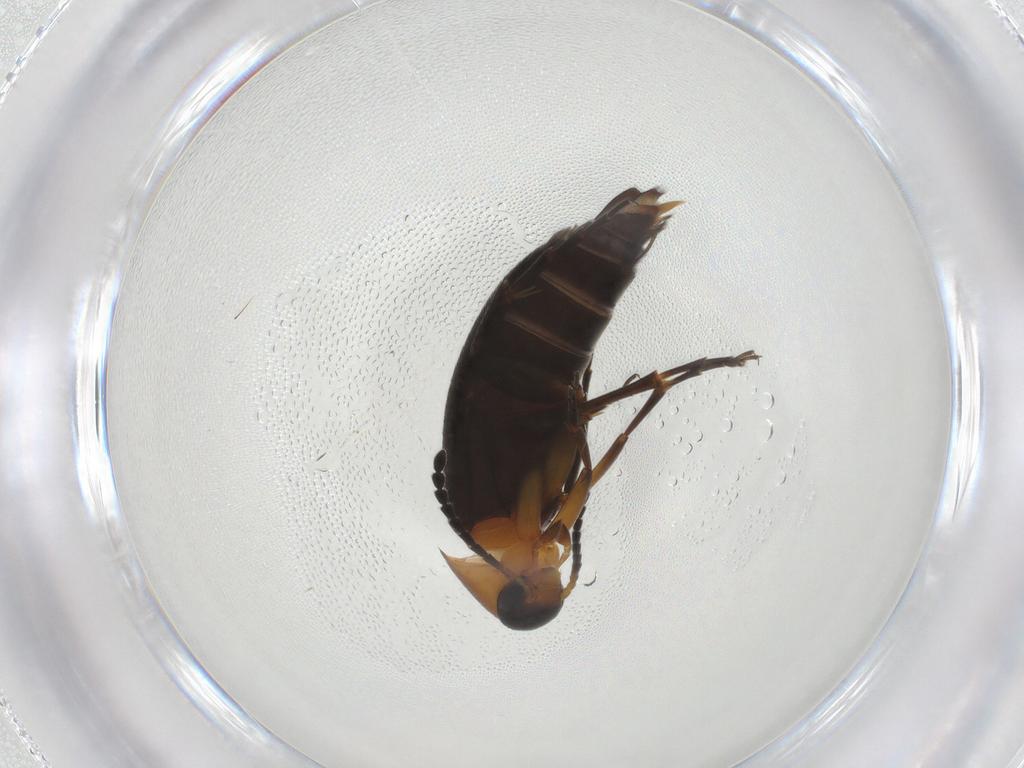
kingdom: Animalia
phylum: Arthropoda
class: Insecta
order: Coleoptera
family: Scraptiidae
